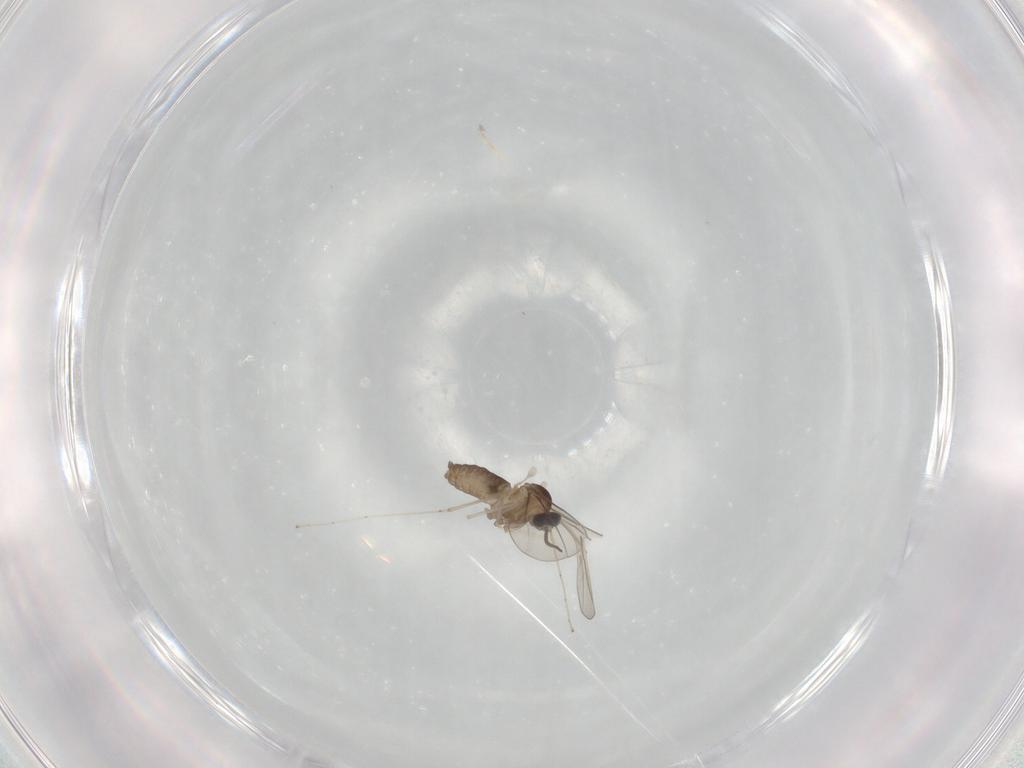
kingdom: Animalia
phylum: Arthropoda
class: Insecta
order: Diptera
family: Cecidomyiidae
